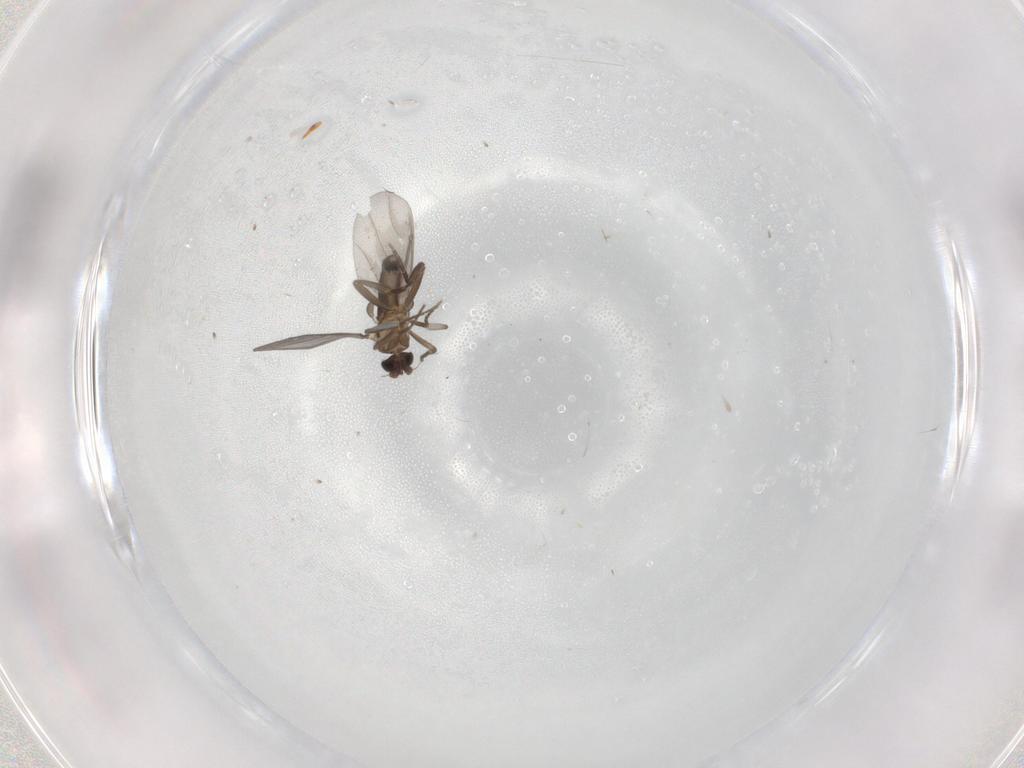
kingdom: Animalia
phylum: Arthropoda
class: Insecta
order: Diptera
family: Phoridae
